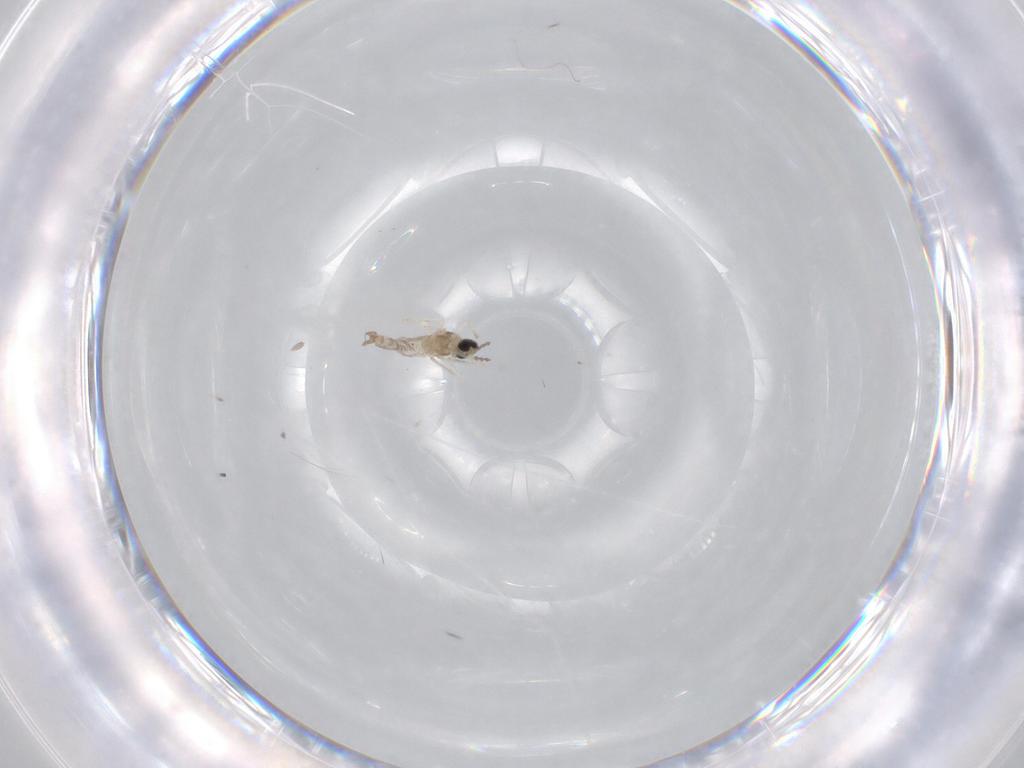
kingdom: Animalia
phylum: Arthropoda
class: Insecta
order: Diptera
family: Cecidomyiidae
